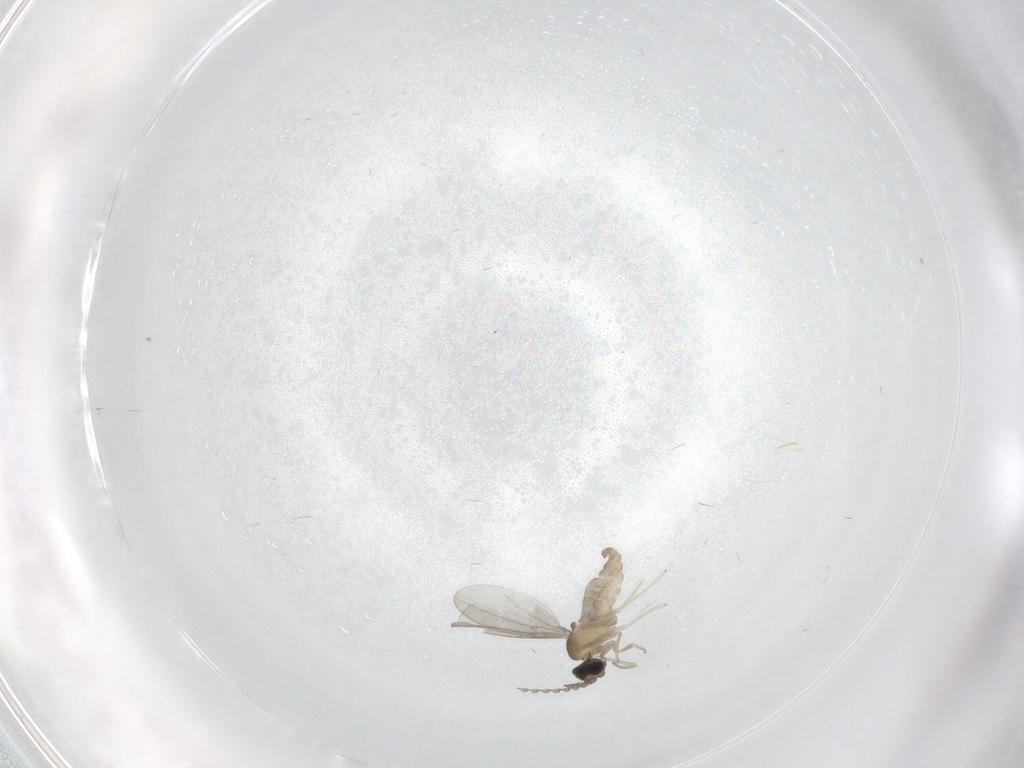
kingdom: Animalia
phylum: Arthropoda
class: Insecta
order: Diptera
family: Limoniidae
